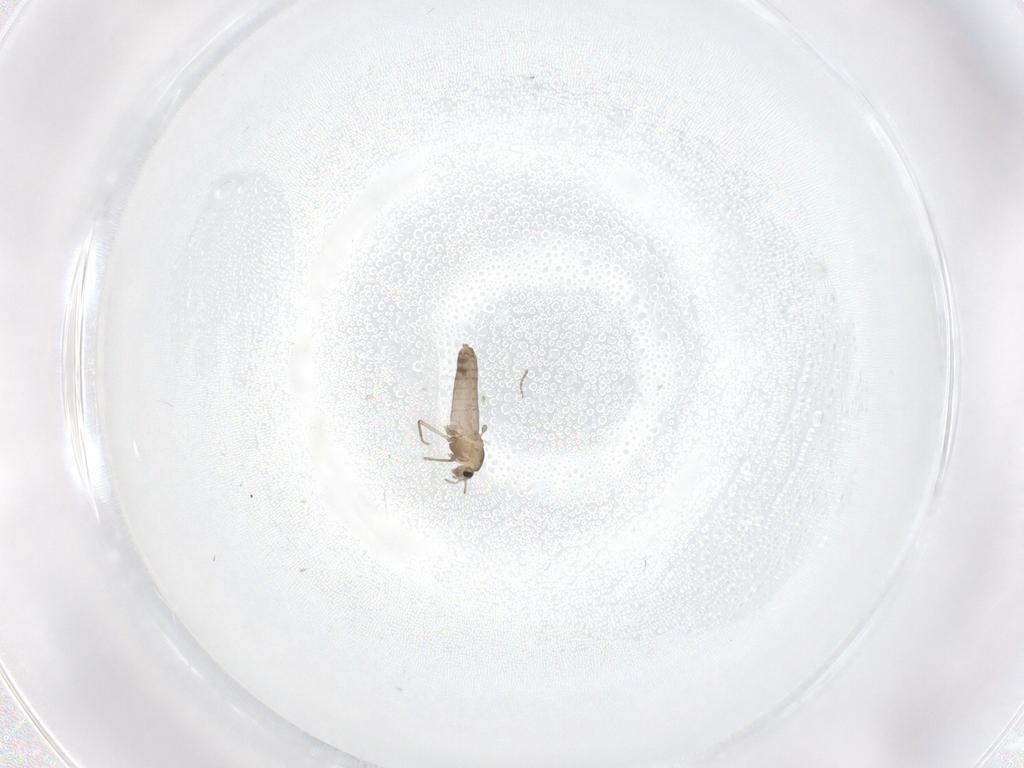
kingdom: Animalia
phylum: Arthropoda
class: Insecta
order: Diptera
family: Chironomidae
